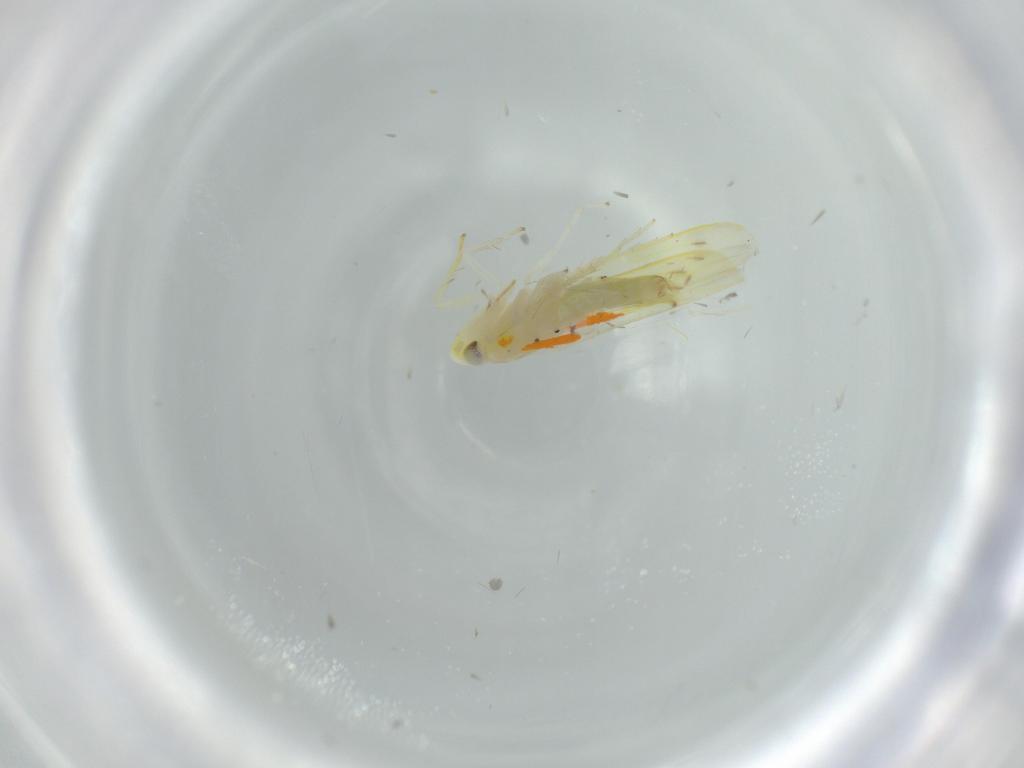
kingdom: Animalia
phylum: Arthropoda
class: Insecta
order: Hemiptera
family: Cicadellidae
